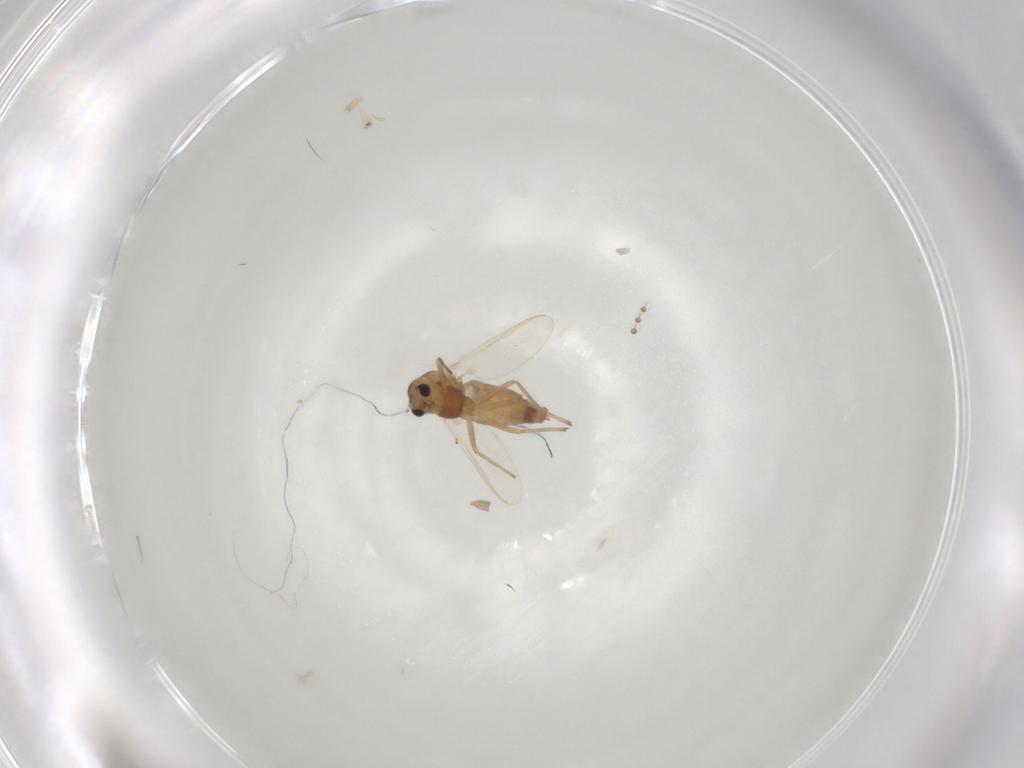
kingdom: Animalia
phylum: Arthropoda
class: Insecta
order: Diptera
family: Chironomidae
